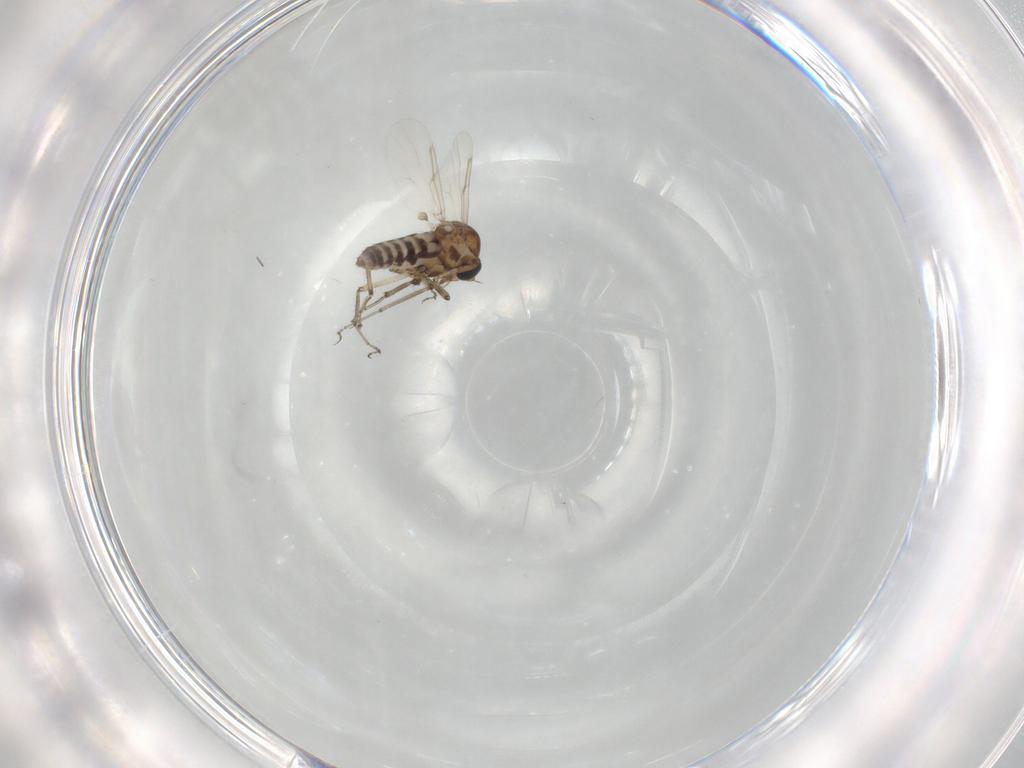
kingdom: Animalia
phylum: Arthropoda
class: Insecta
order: Diptera
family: Ceratopogonidae
